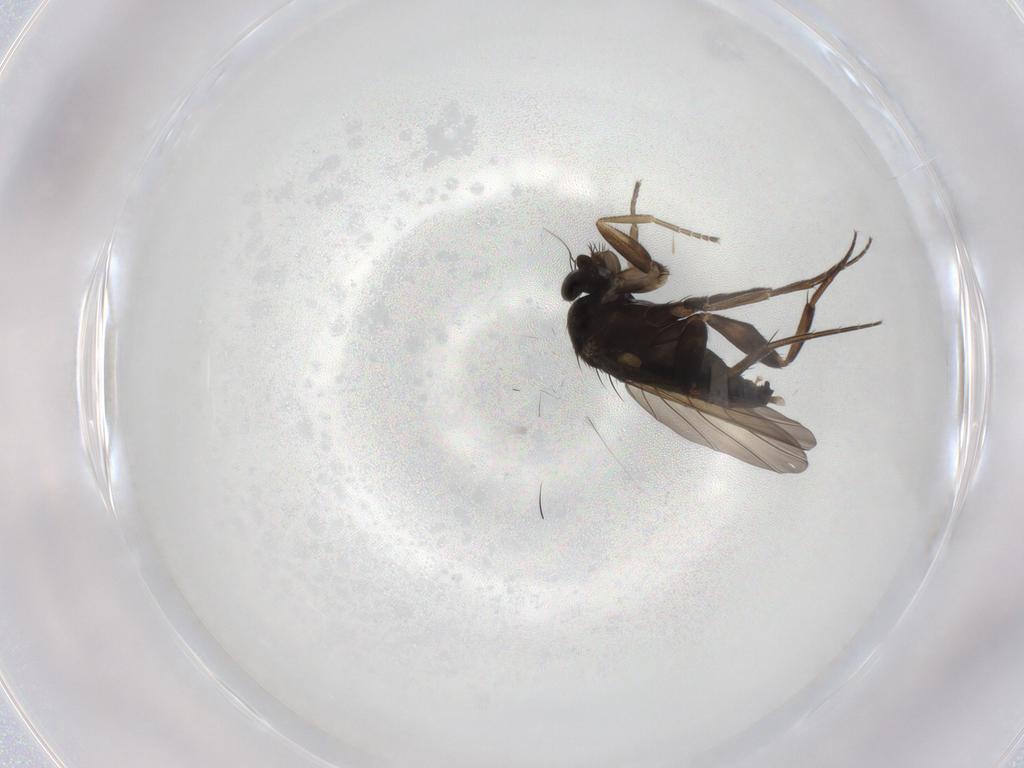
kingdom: Animalia
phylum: Arthropoda
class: Insecta
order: Diptera
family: Phoridae
